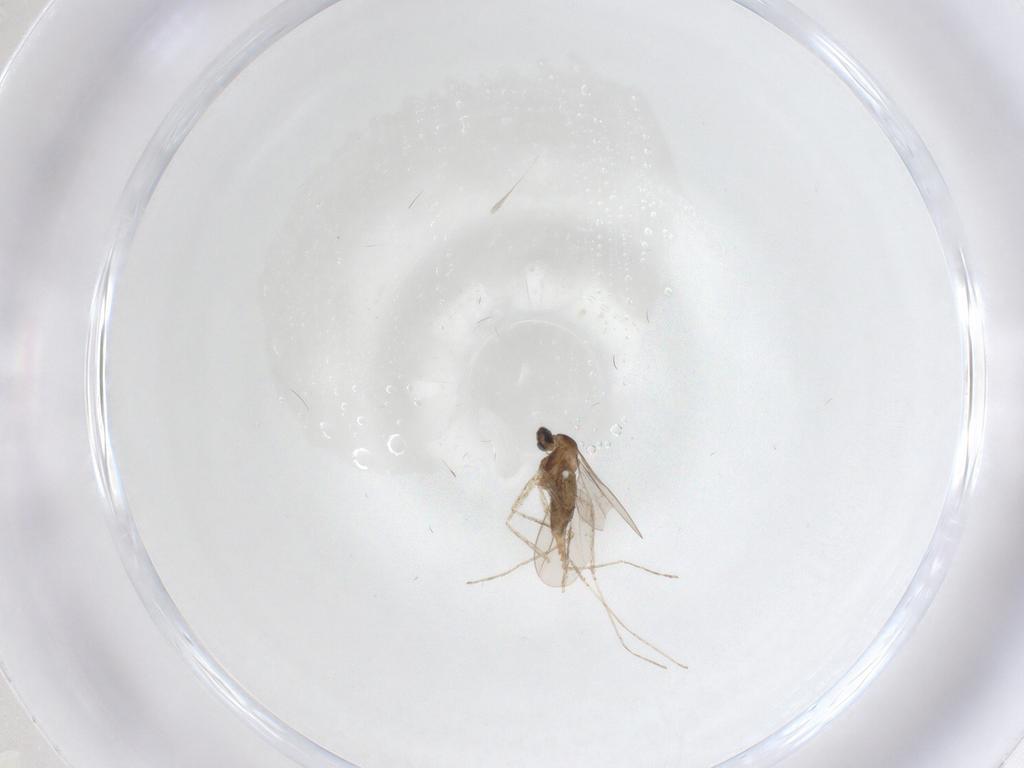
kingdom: Animalia
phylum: Arthropoda
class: Insecta
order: Diptera
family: Cecidomyiidae
